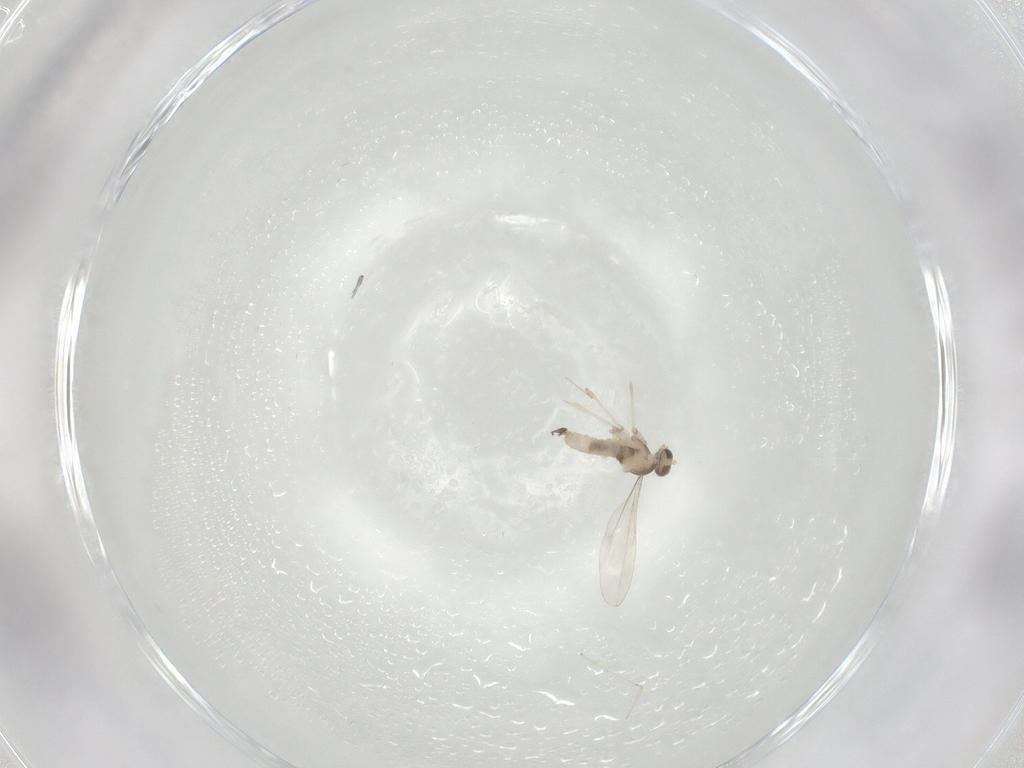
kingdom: Animalia
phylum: Arthropoda
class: Insecta
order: Diptera
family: Cecidomyiidae
